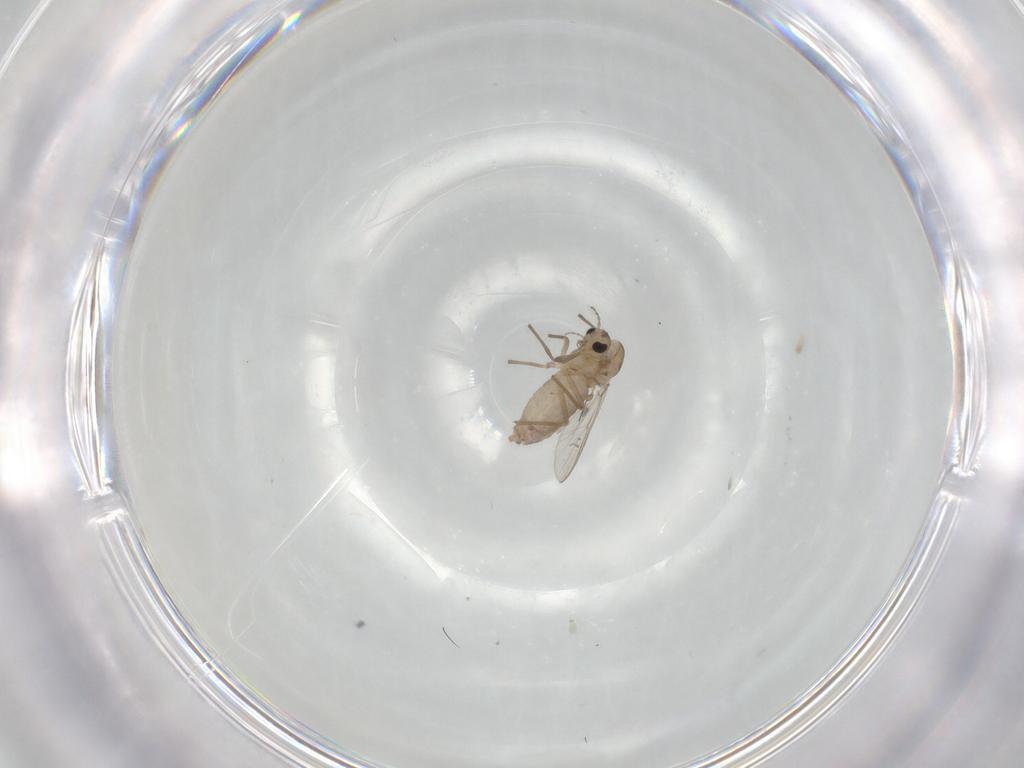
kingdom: Animalia
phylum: Arthropoda
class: Insecta
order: Diptera
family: Chironomidae
